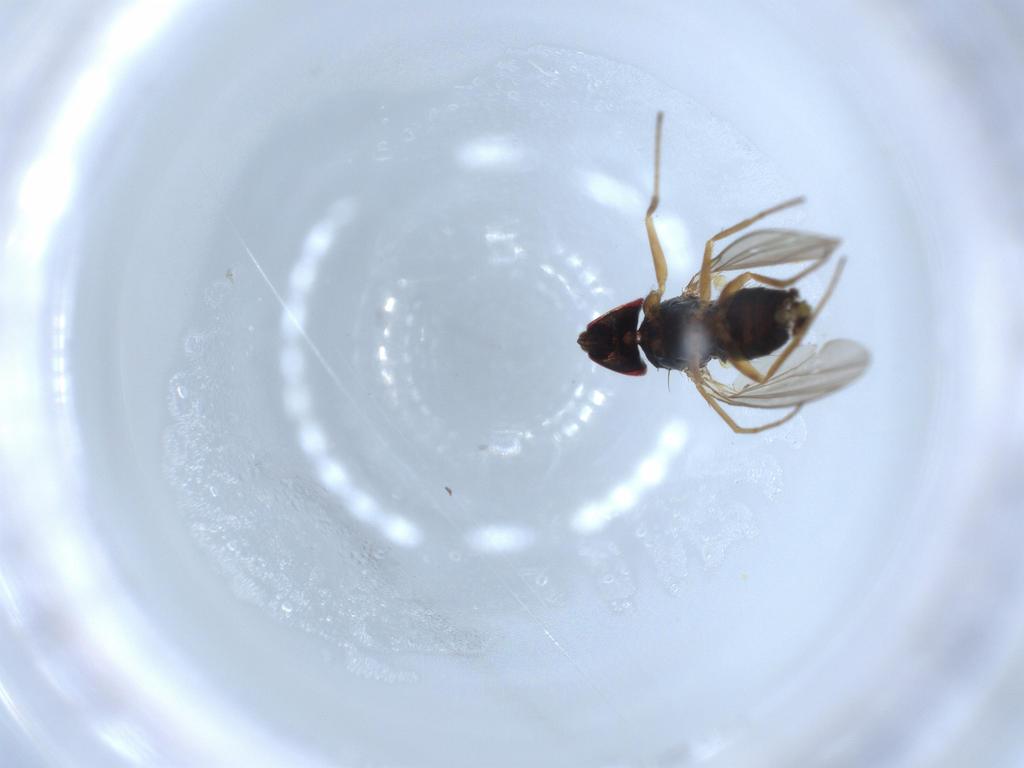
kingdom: Animalia
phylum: Arthropoda
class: Insecta
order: Diptera
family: Dolichopodidae
